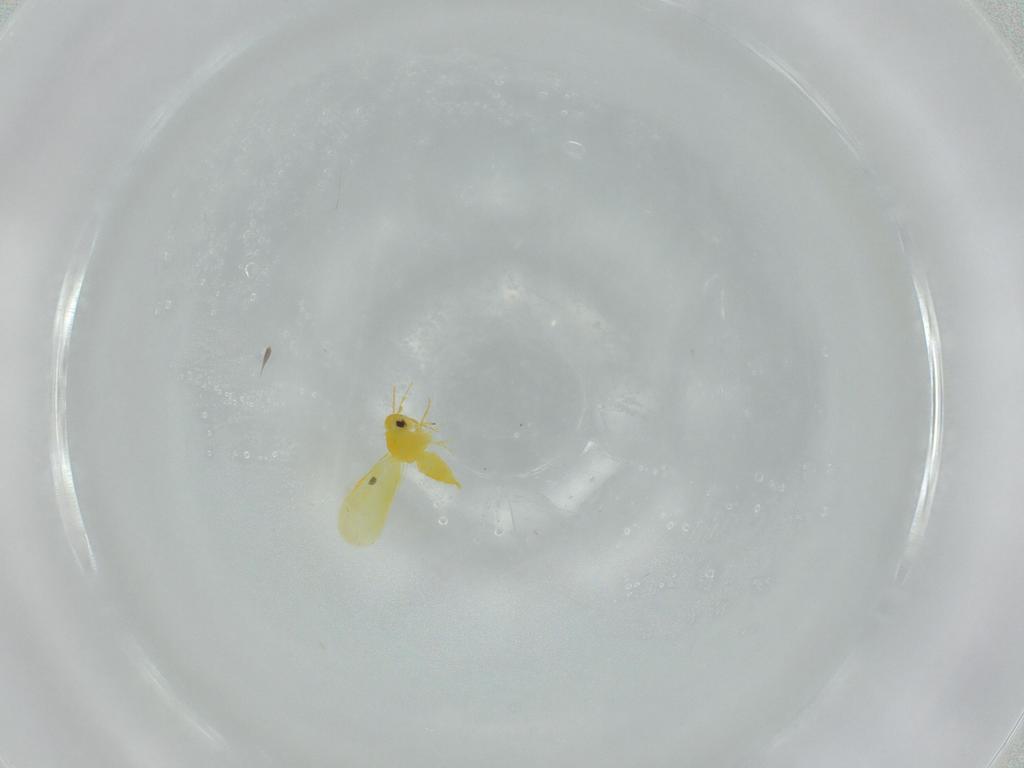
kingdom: Animalia
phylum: Arthropoda
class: Insecta
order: Hemiptera
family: Aleyrodidae
